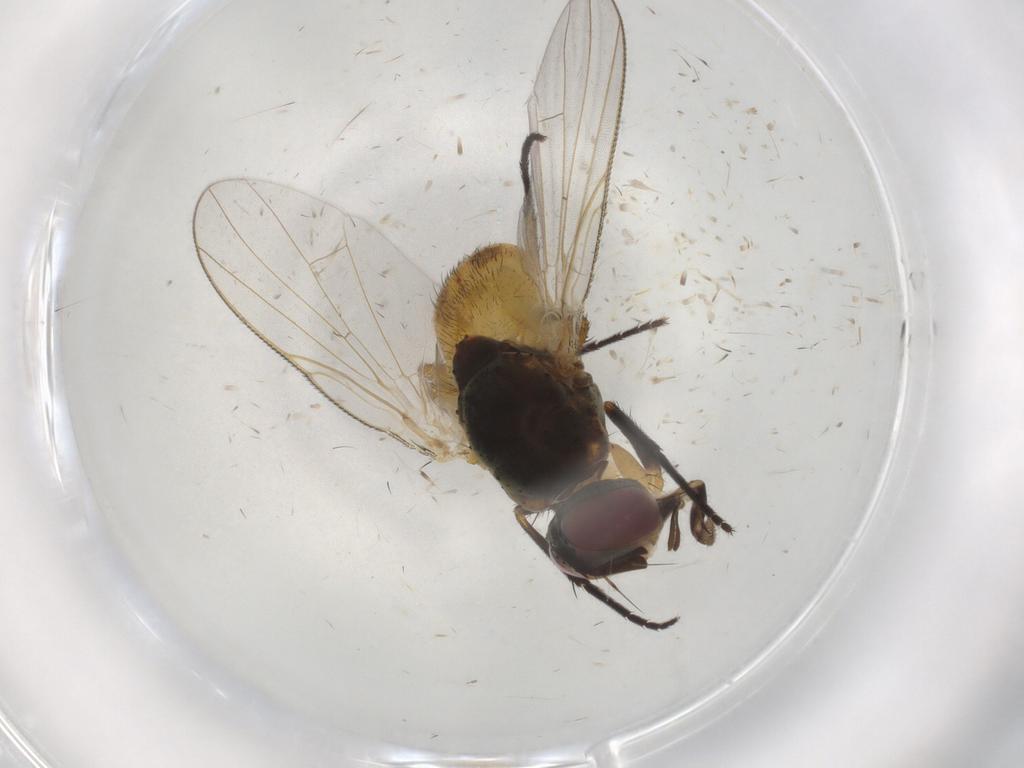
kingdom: Animalia
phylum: Arthropoda
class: Insecta
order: Diptera
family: Muscidae
